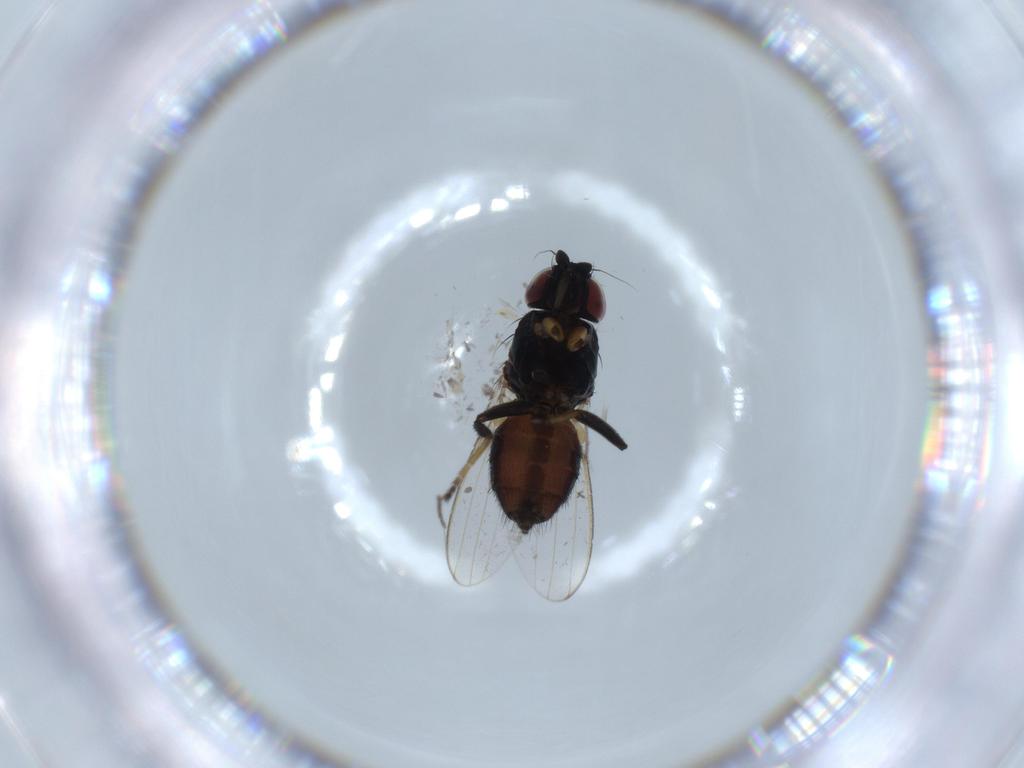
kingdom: Animalia
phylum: Arthropoda
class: Insecta
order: Diptera
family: Milichiidae
